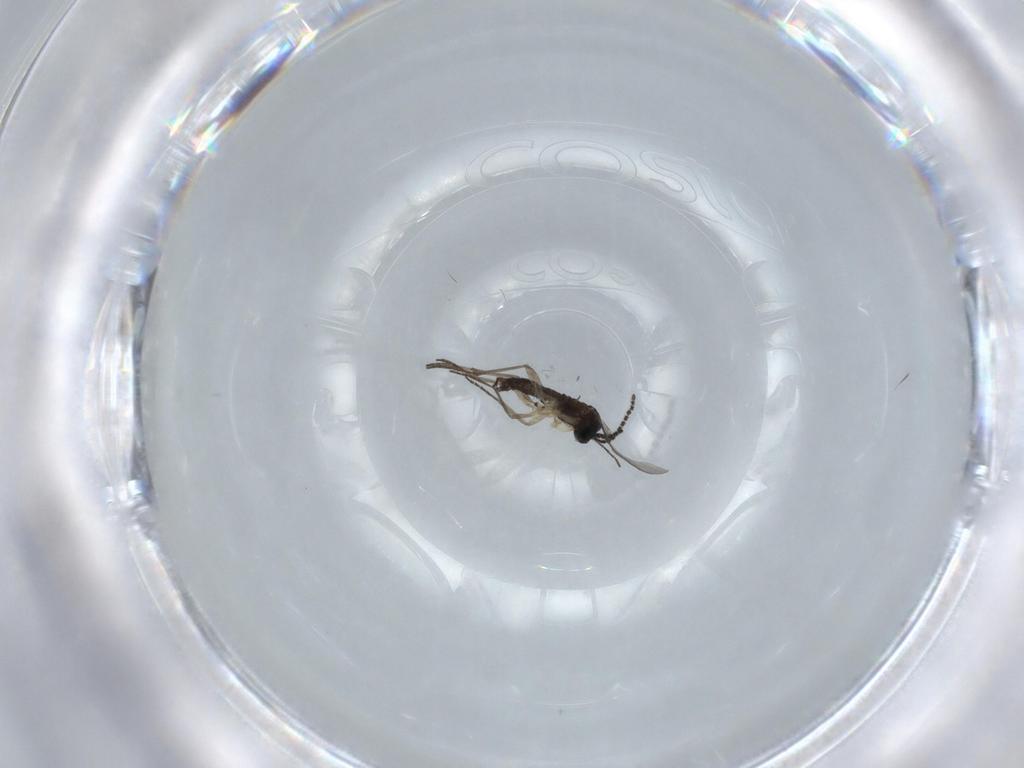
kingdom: Animalia
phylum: Arthropoda
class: Insecta
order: Diptera
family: Sciaridae
